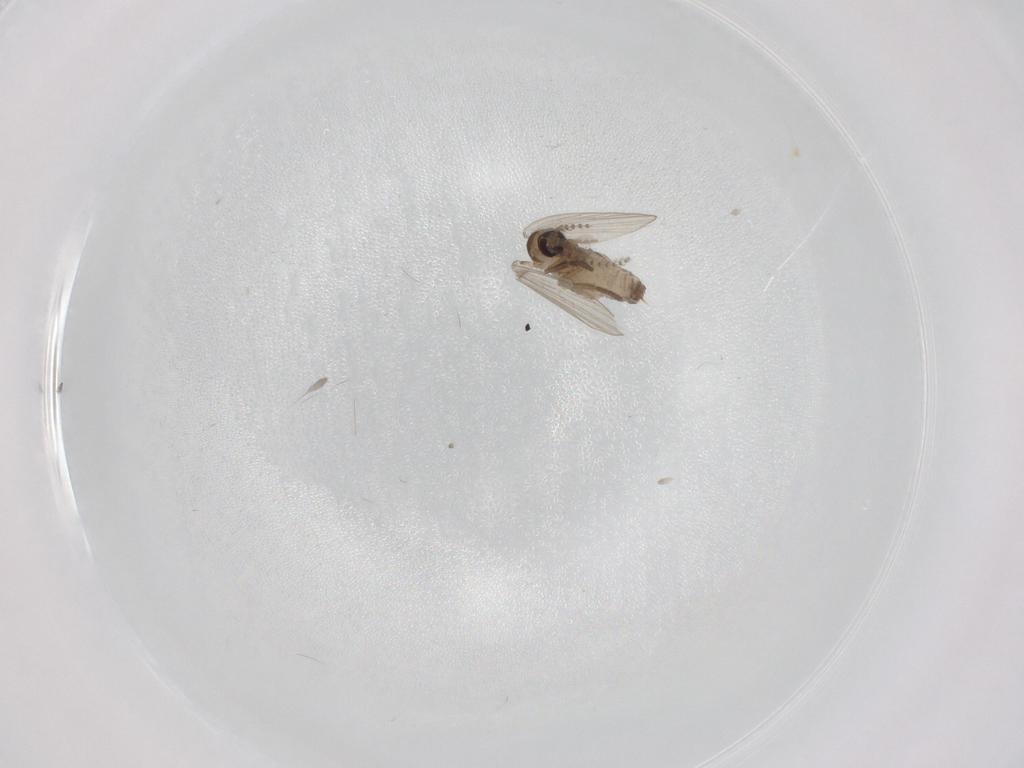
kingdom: Animalia
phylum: Arthropoda
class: Insecta
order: Diptera
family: Psychodidae
